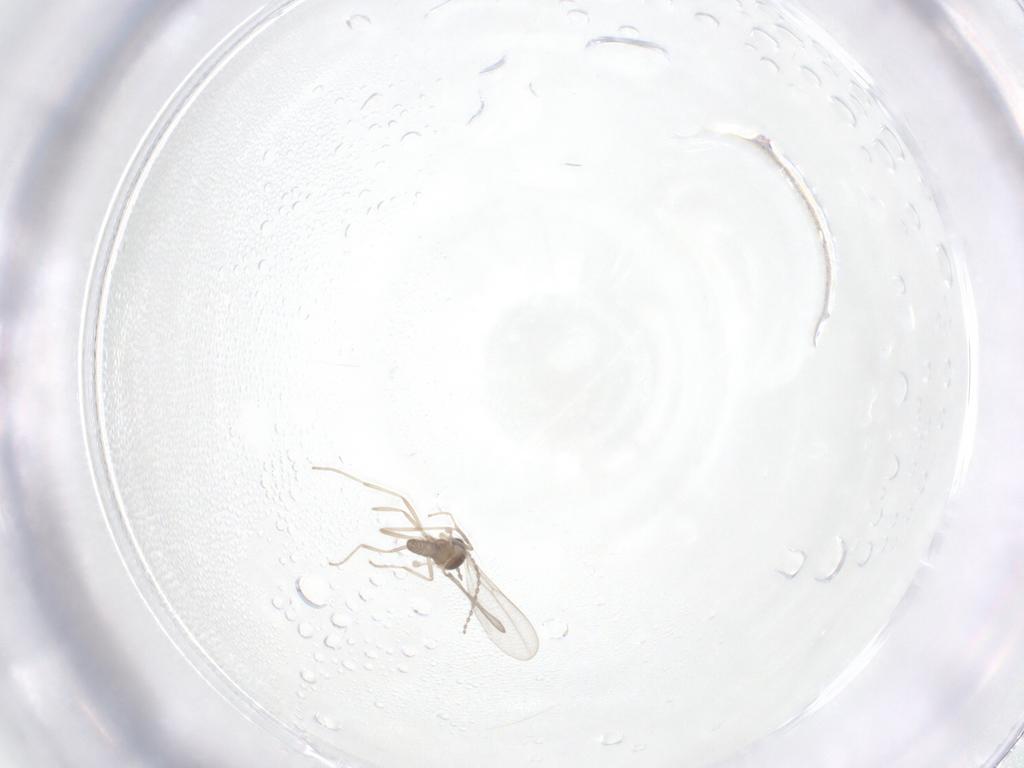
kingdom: Animalia
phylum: Arthropoda
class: Insecta
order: Diptera
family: Cecidomyiidae
